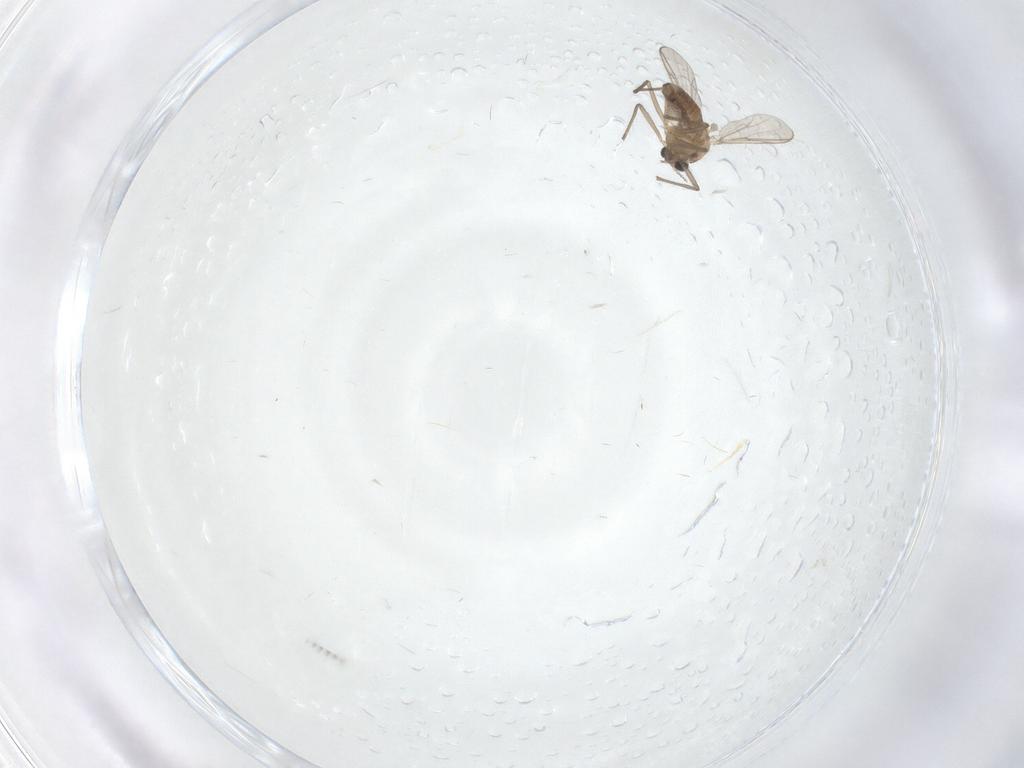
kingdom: Animalia
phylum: Arthropoda
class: Insecta
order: Diptera
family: Chironomidae
